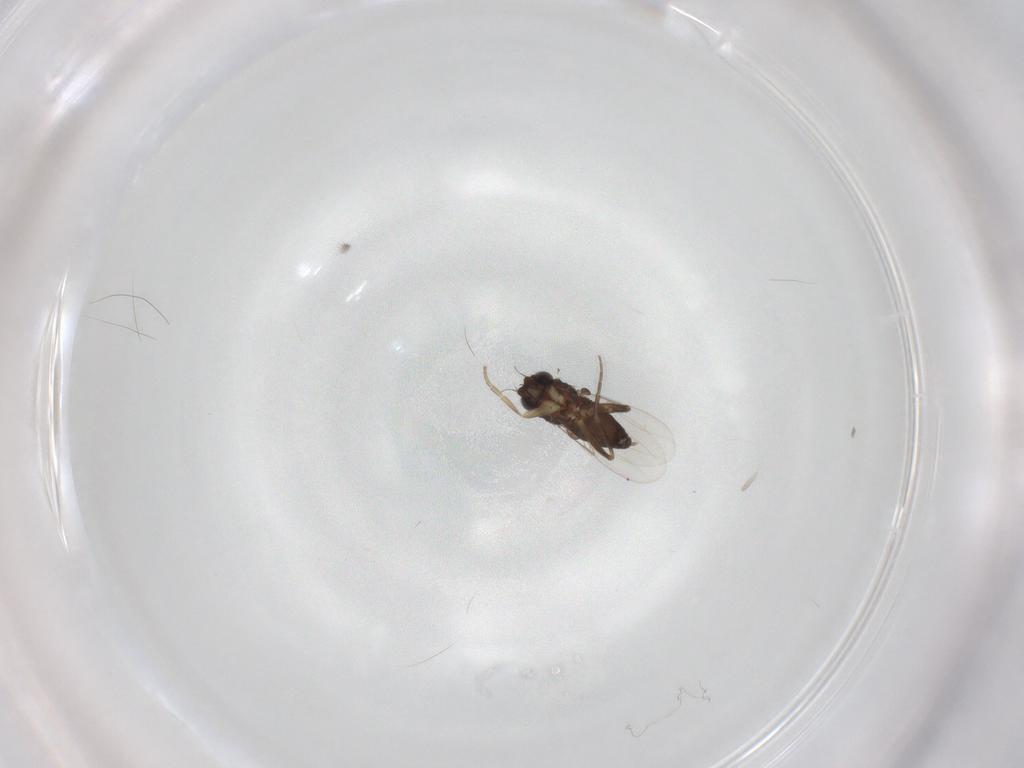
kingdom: Animalia
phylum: Arthropoda
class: Insecta
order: Diptera
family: Phoridae
